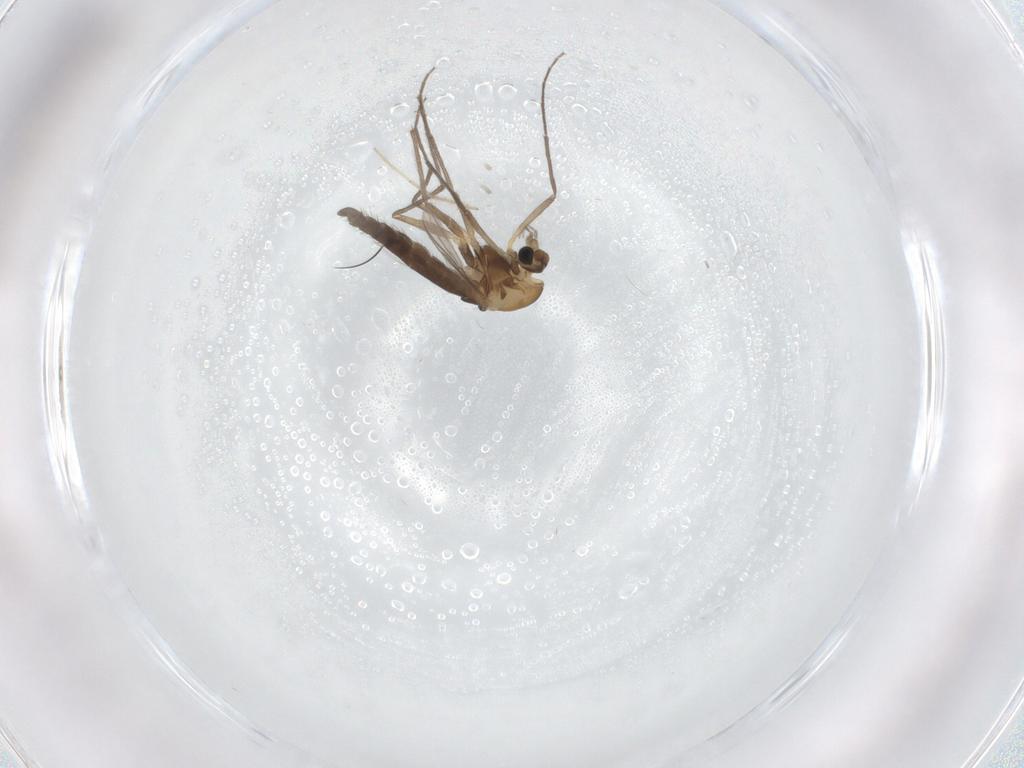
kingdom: Animalia
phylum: Arthropoda
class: Insecta
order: Diptera
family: Chironomidae
